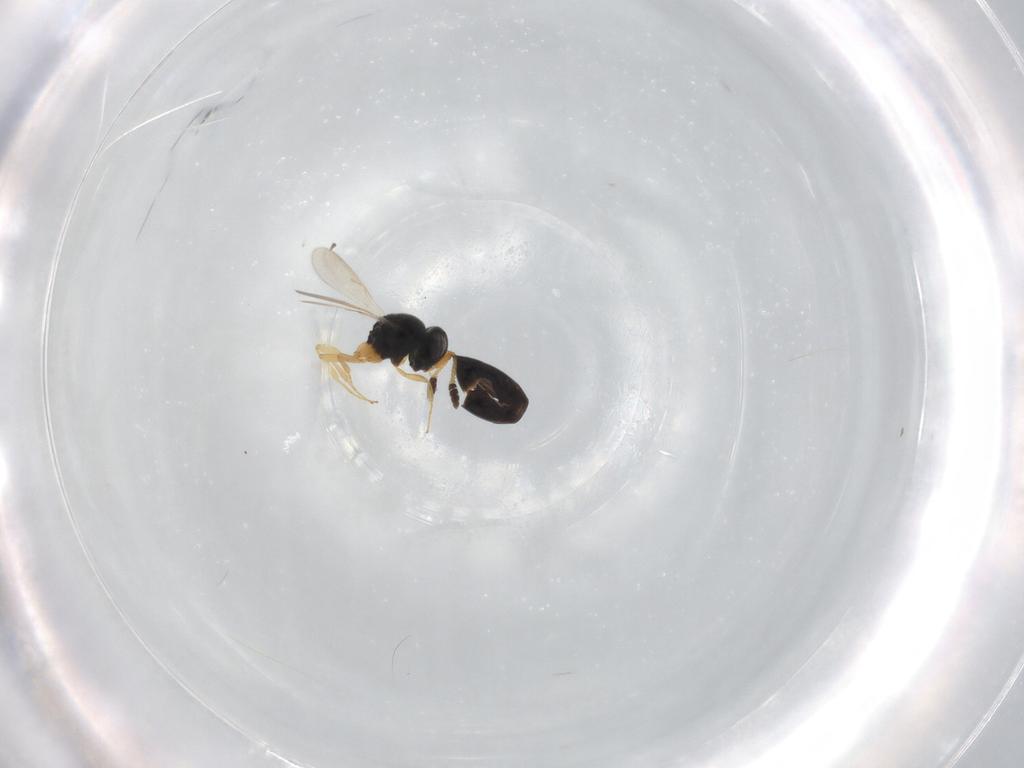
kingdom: Animalia
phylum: Arthropoda
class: Insecta
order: Hymenoptera
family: Scelionidae
